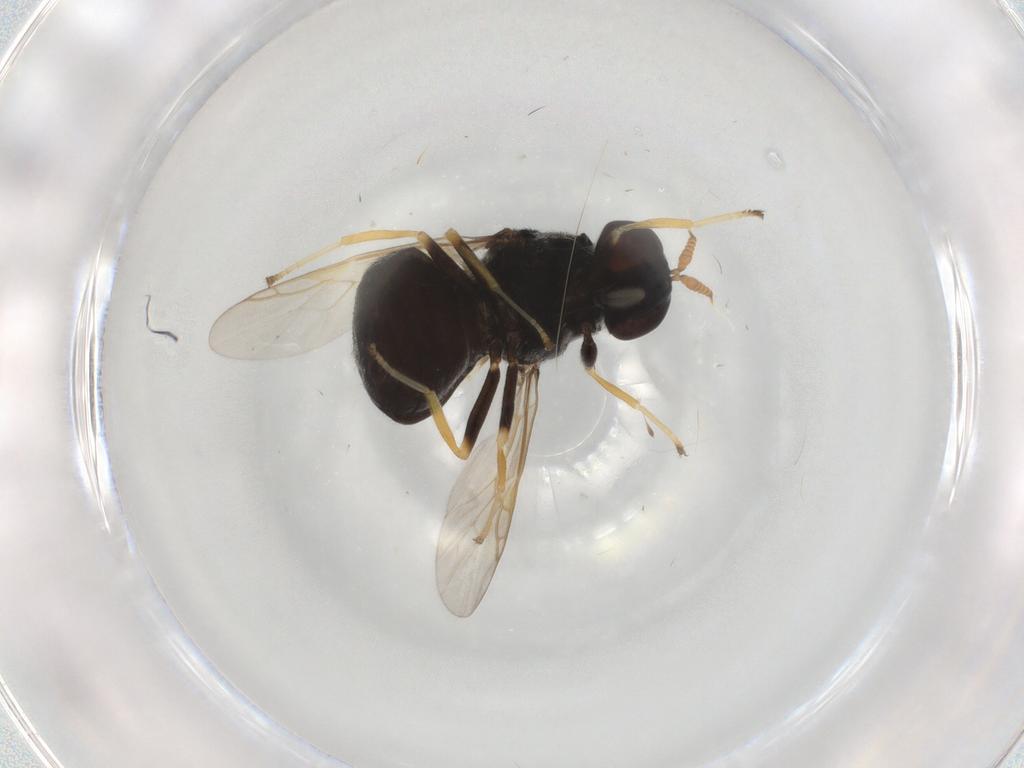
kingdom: Animalia
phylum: Arthropoda
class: Insecta
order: Diptera
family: Stratiomyidae
